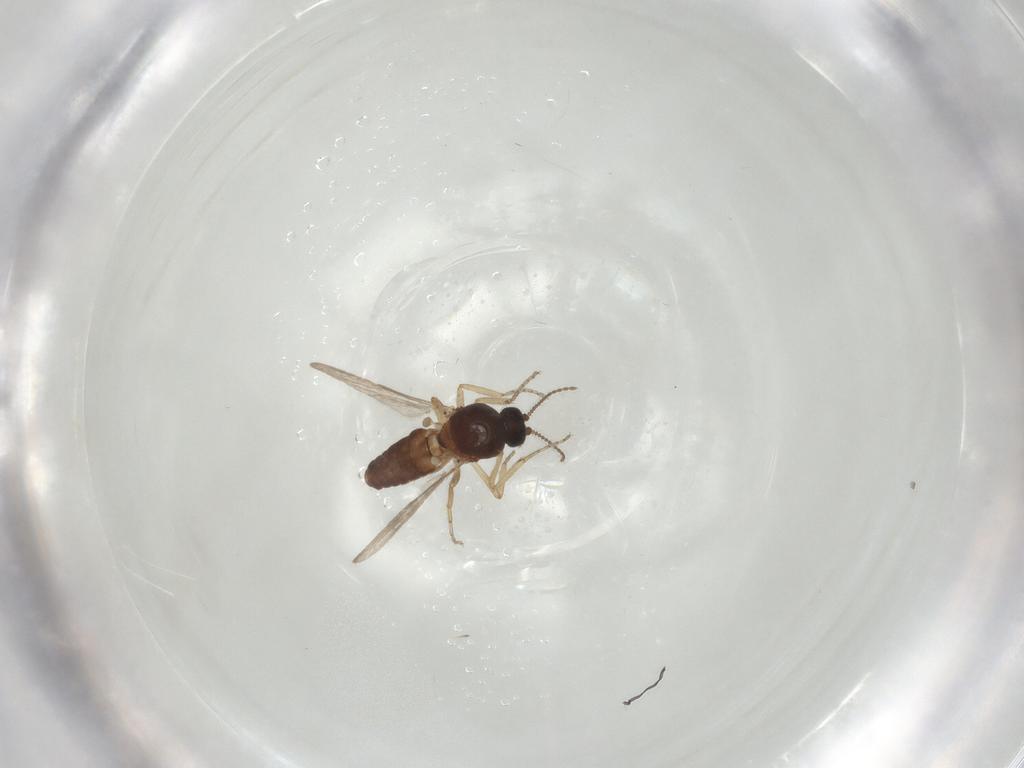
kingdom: Animalia
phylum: Arthropoda
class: Insecta
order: Diptera
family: Ceratopogonidae
